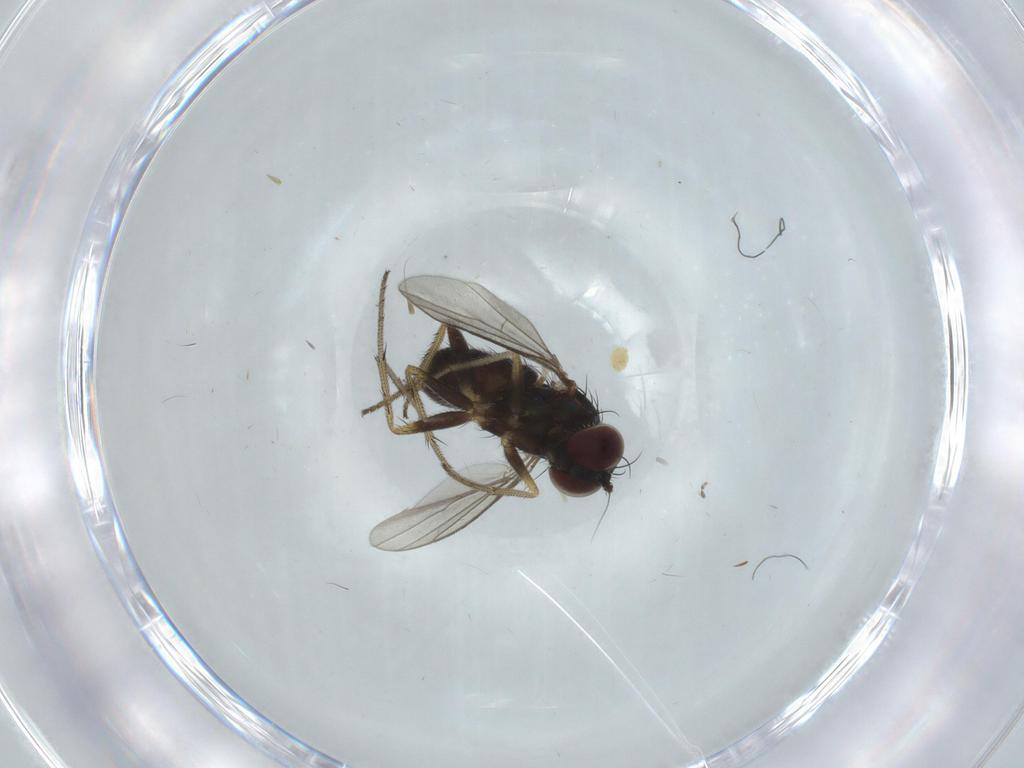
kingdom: Animalia
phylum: Arthropoda
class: Insecta
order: Diptera
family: Dolichopodidae
